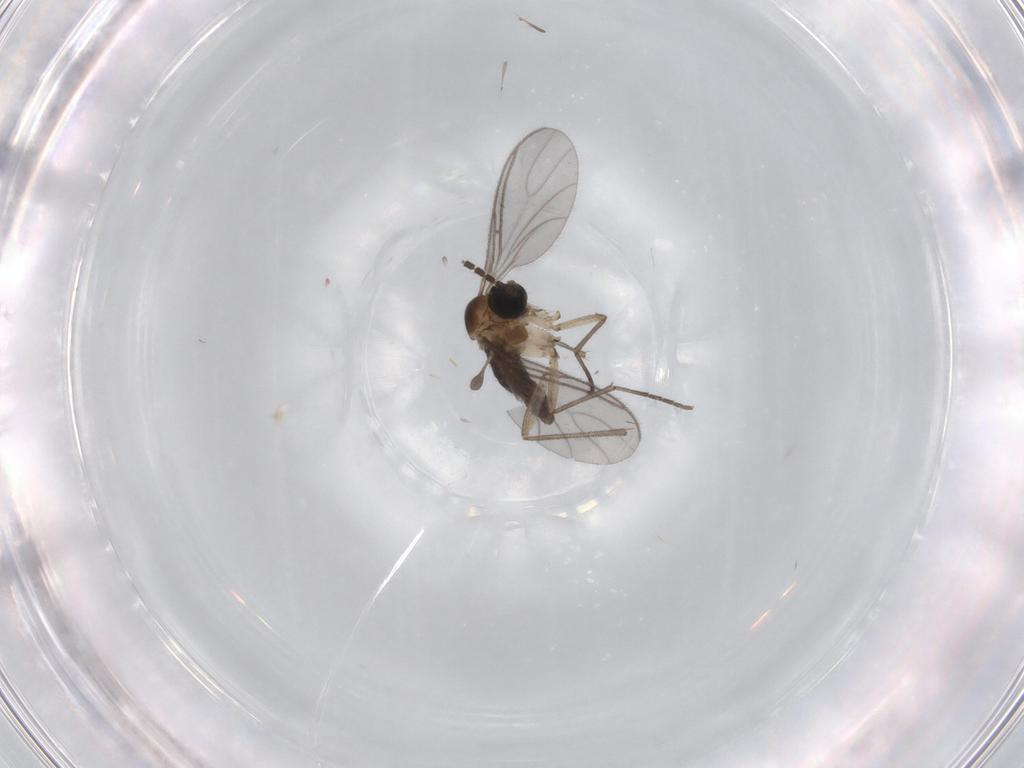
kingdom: Animalia
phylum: Arthropoda
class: Insecta
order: Diptera
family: Sciaridae
